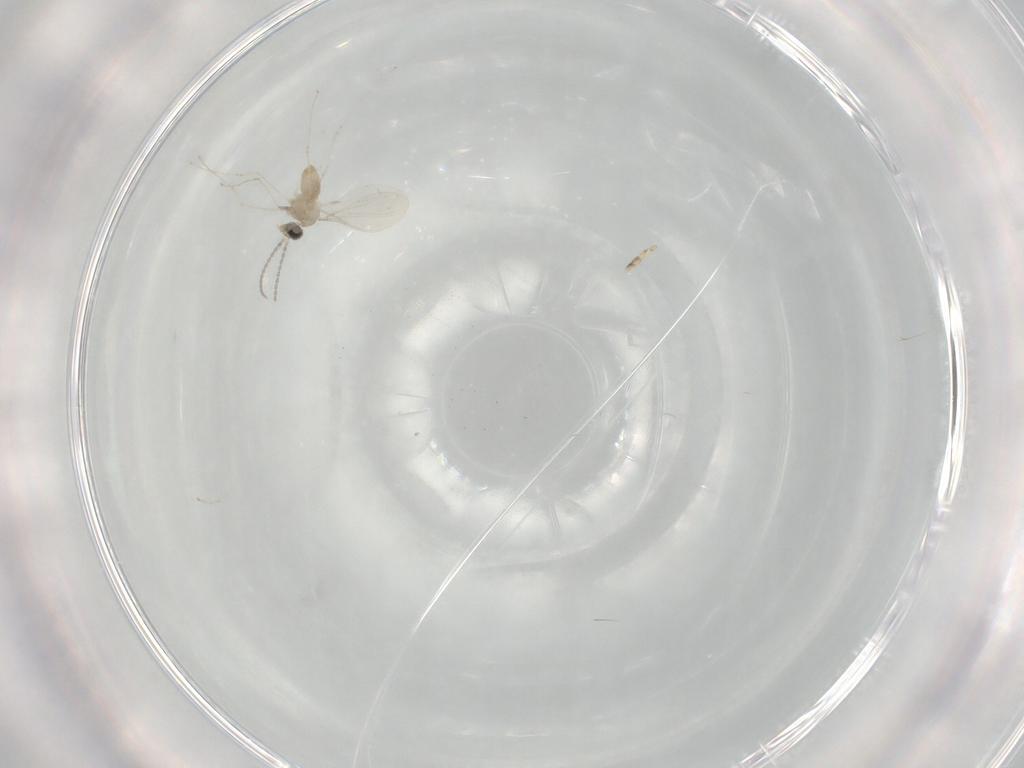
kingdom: Animalia
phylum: Arthropoda
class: Insecta
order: Diptera
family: Cecidomyiidae
